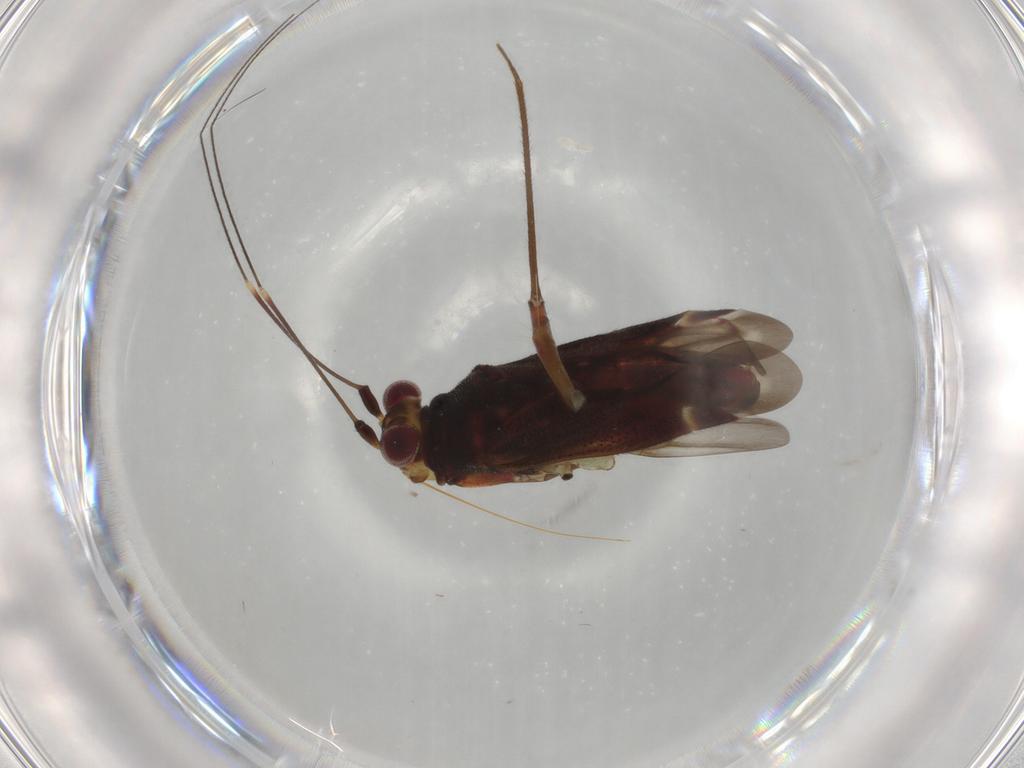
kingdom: Animalia
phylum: Arthropoda
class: Insecta
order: Hemiptera
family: Miridae
